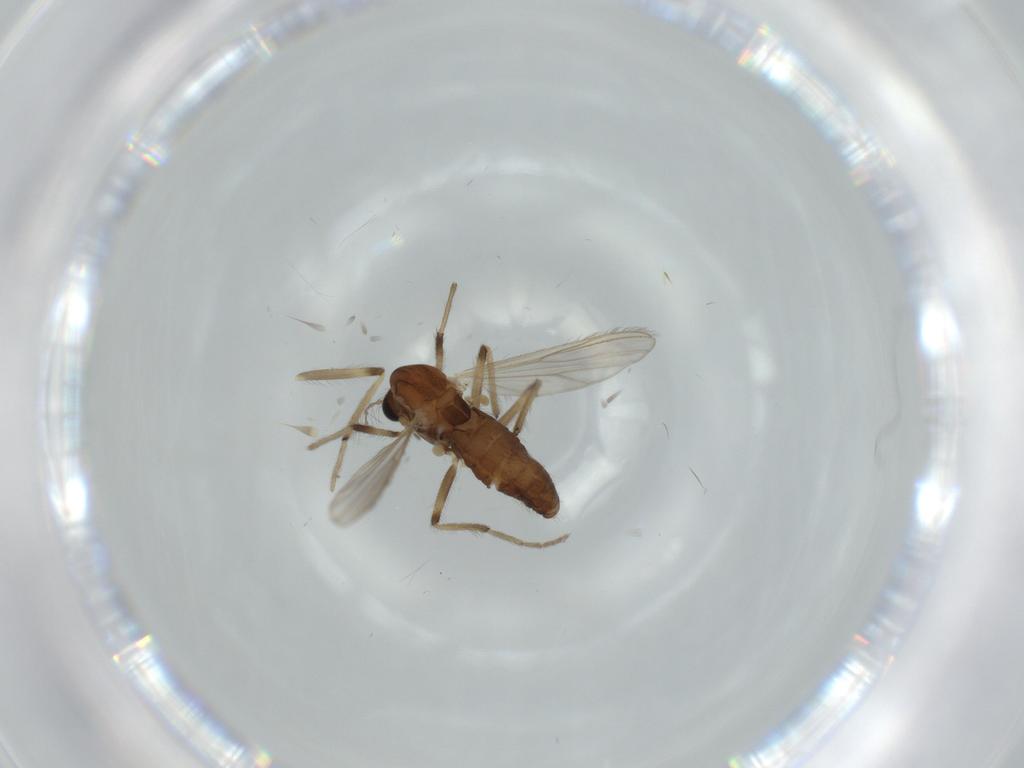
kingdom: Animalia
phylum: Arthropoda
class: Insecta
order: Diptera
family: Chironomidae
